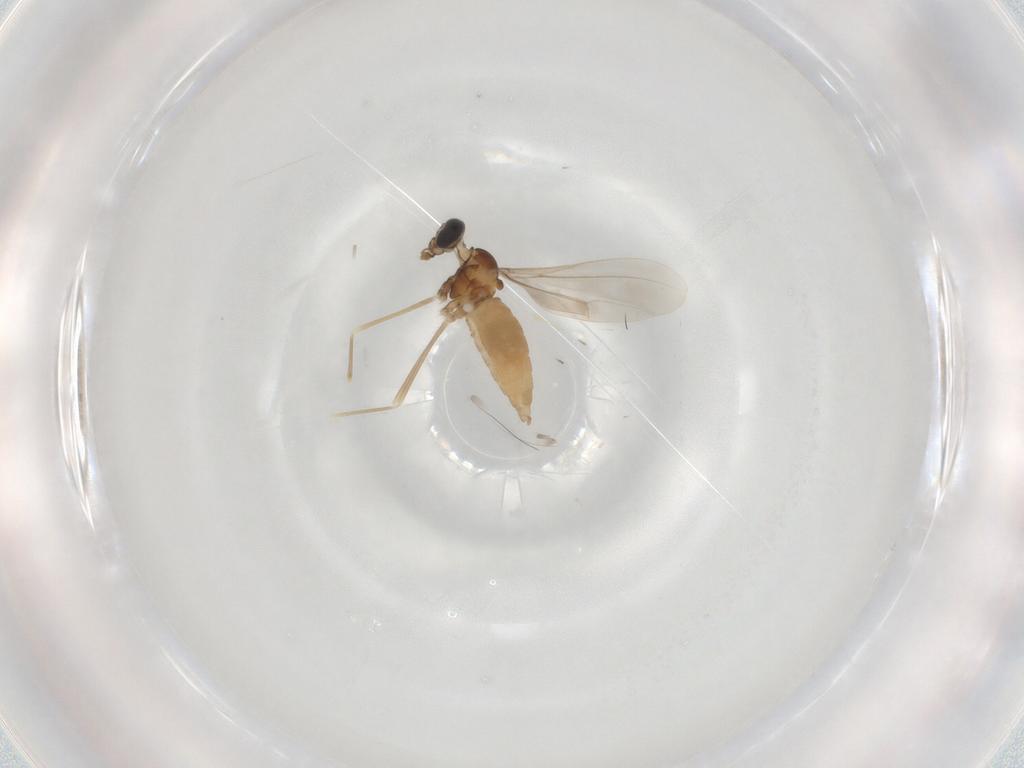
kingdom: Animalia
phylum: Arthropoda
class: Insecta
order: Diptera
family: Cecidomyiidae
